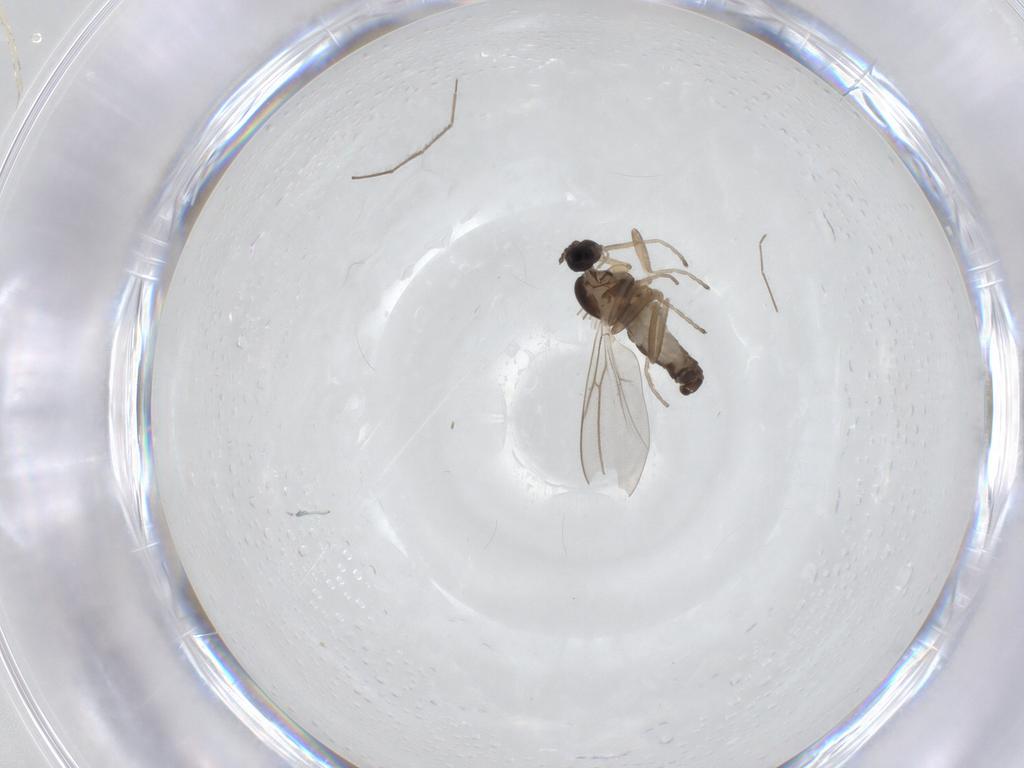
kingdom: Animalia
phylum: Arthropoda
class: Insecta
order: Diptera
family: Cecidomyiidae
